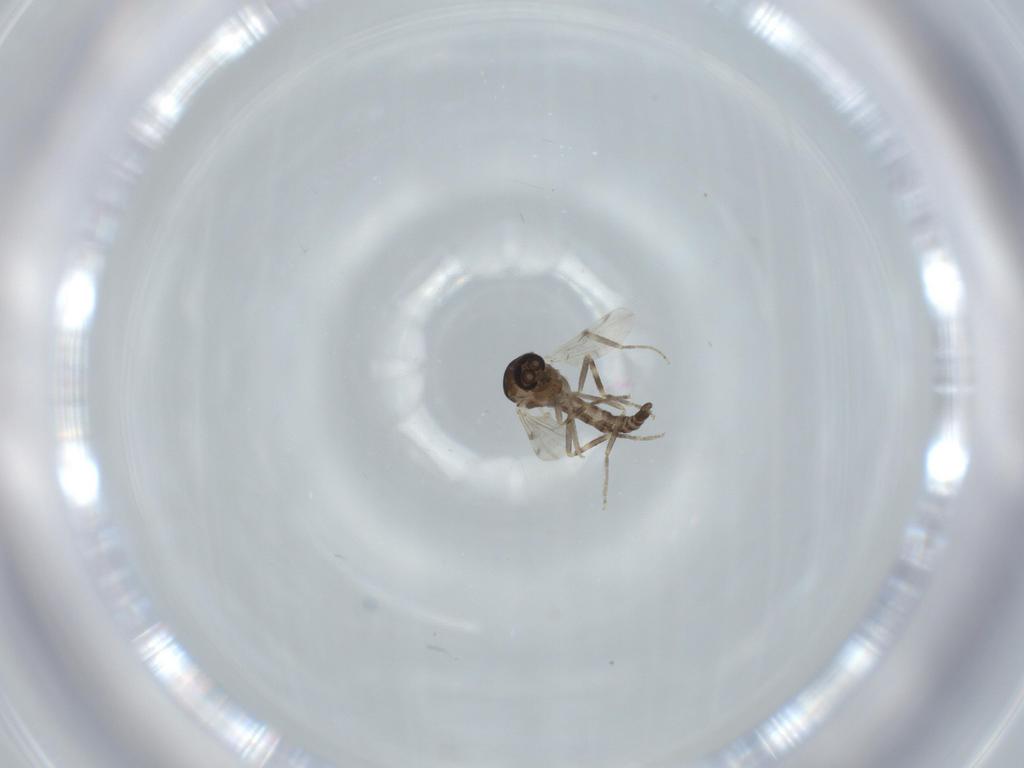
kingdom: Animalia
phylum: Arthropoda
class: Insecta
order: Diptera
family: Ceratopogonidae
